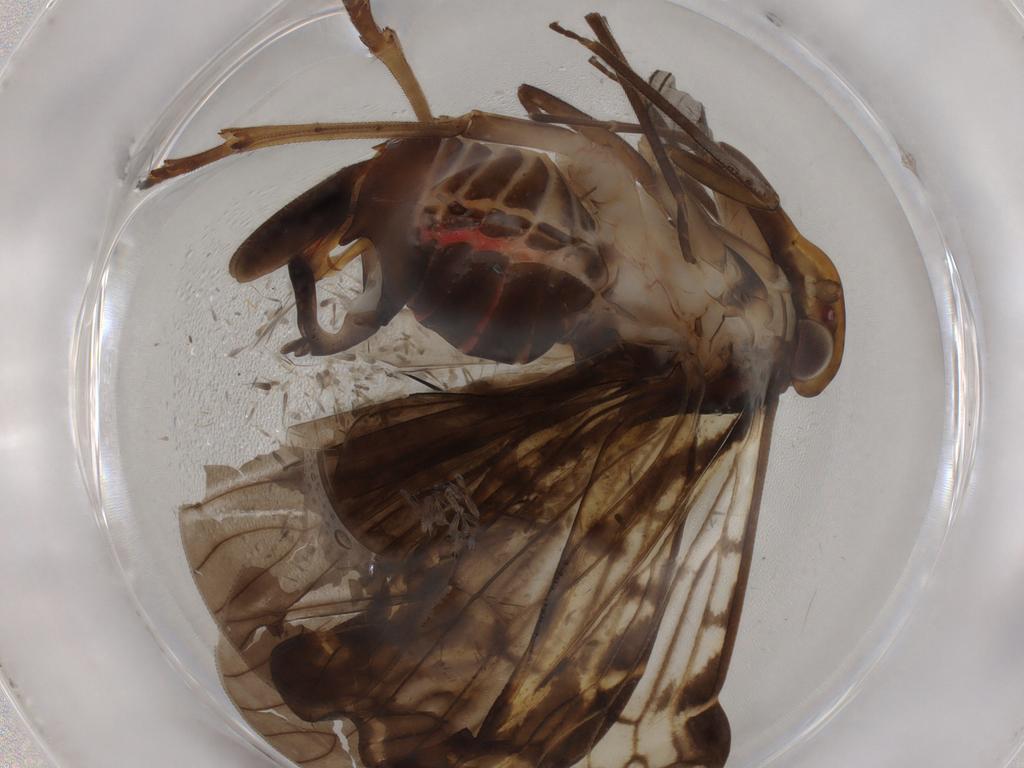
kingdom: Animalia
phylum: Arthropoda
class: Insecta
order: Hemiptera
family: Cixiidae
